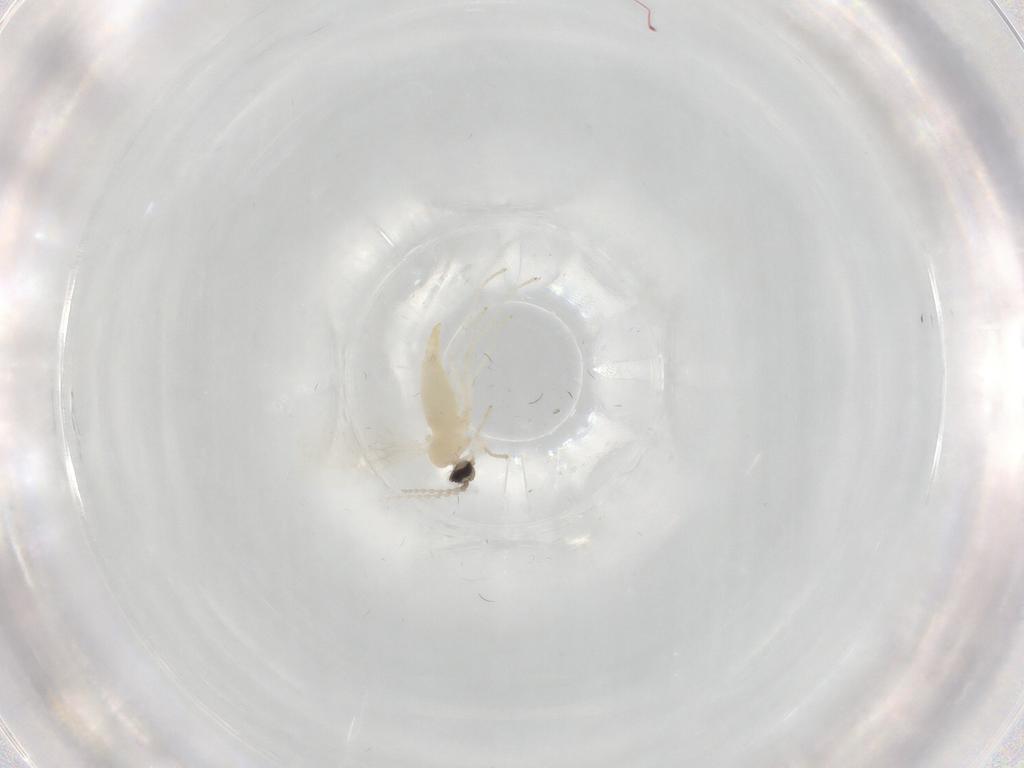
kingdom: Animalia
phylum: Arthropoda
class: Insecta
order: Diptera
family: Cecidomyiidae
